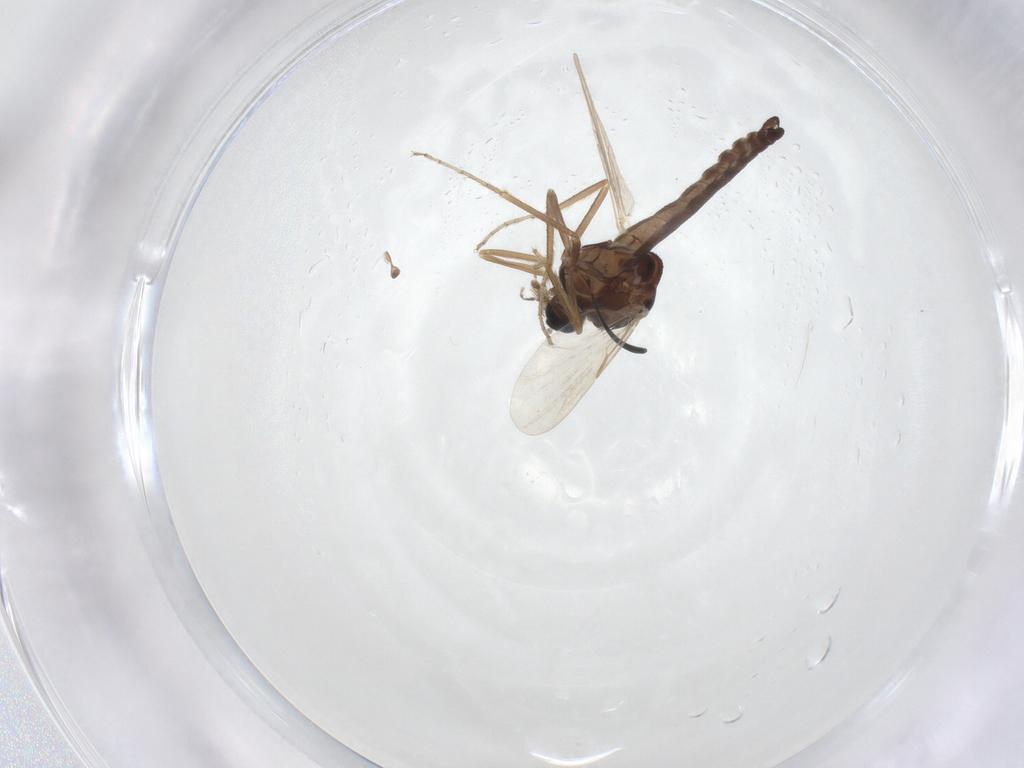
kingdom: Animalia
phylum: Arthropoda
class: Insecta
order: Diptera
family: Ceratopogonidae
